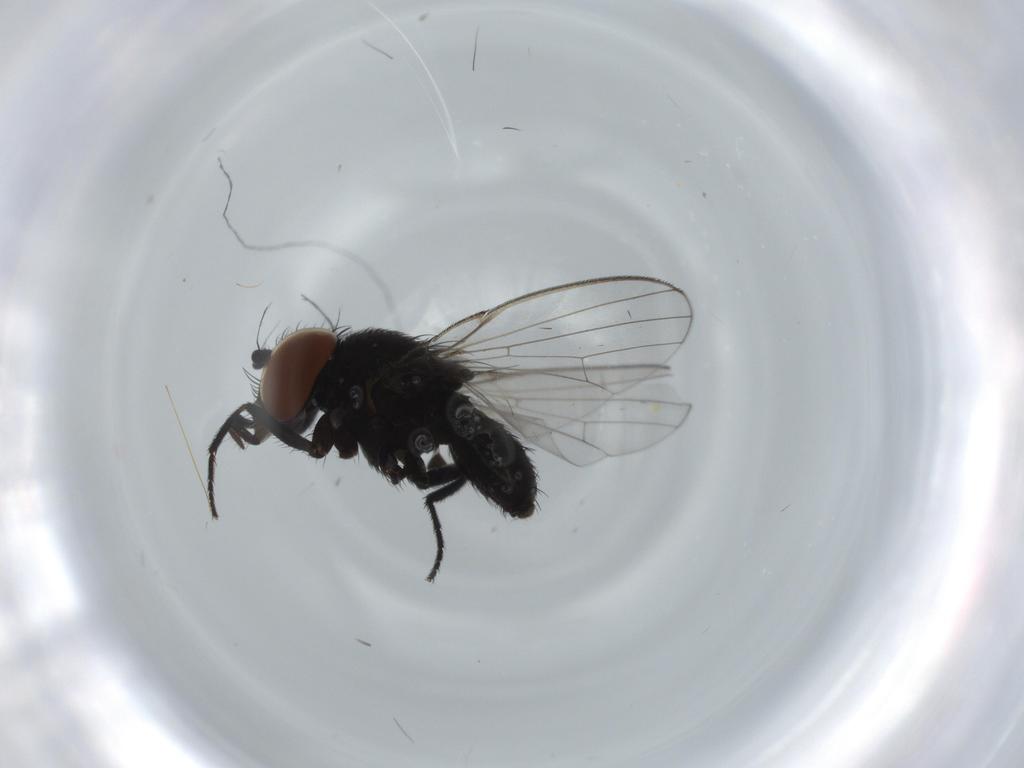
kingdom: Animalia
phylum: Arthropoda
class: Insecta
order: Diptera
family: Milichiidae
